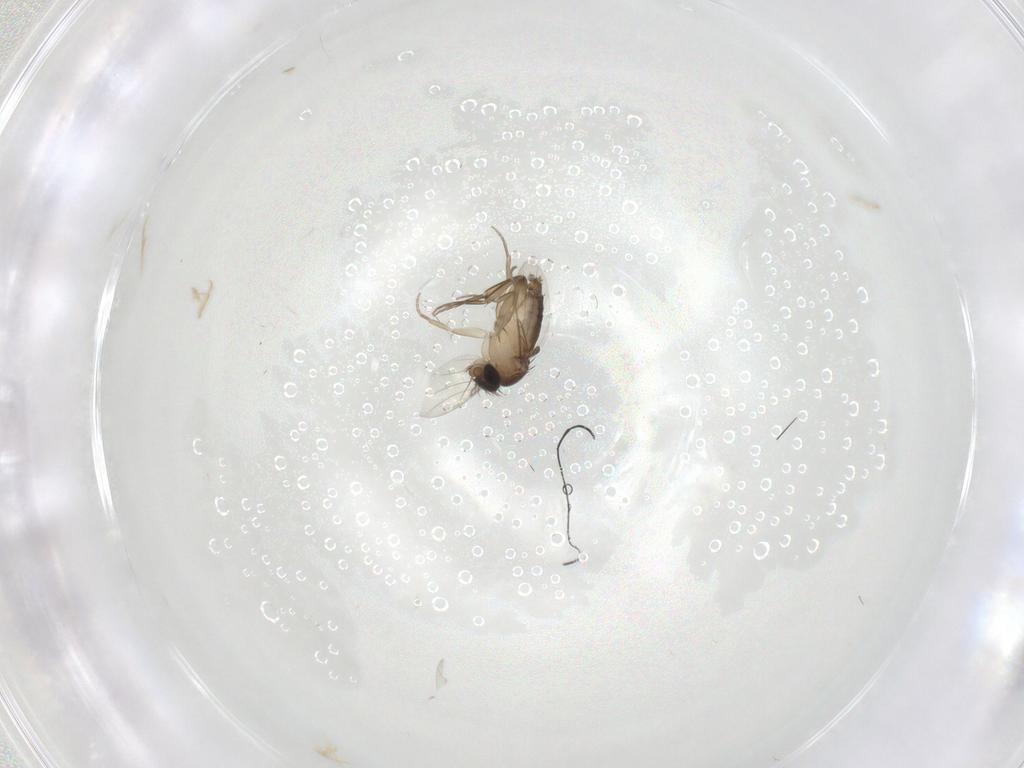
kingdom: Animalia
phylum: Arthropoda
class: Insecta
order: Diptera
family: Phoridae
